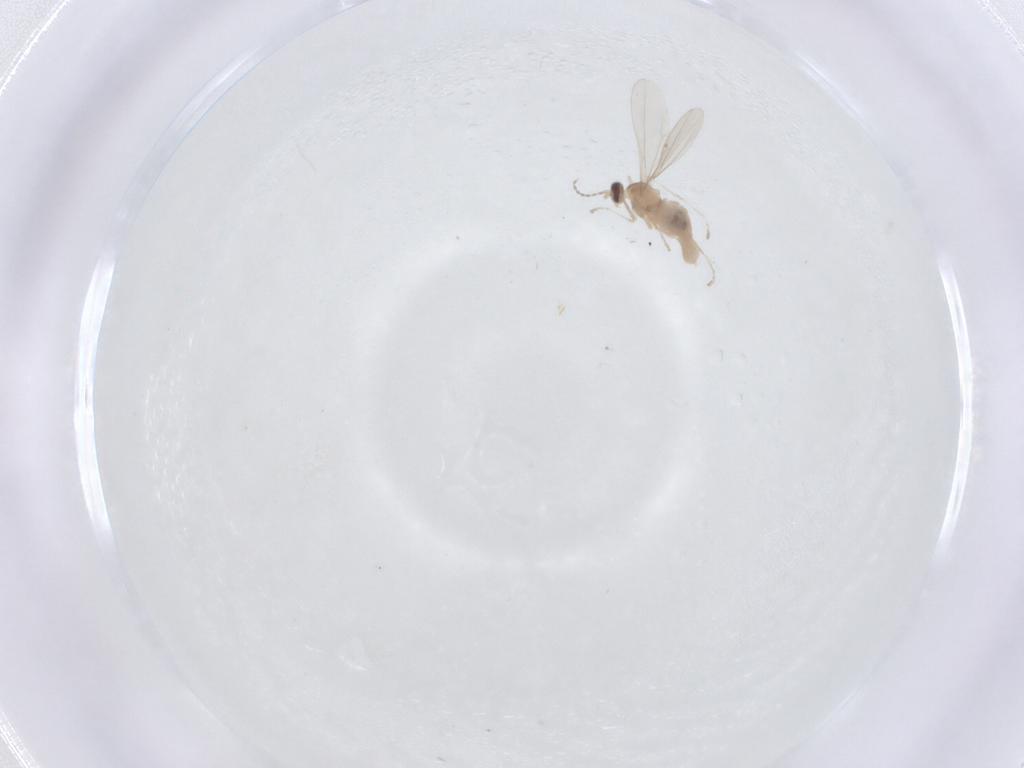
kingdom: Animalia
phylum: Arthropoda
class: Insecta
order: Diptera
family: Cecidomyiidae
